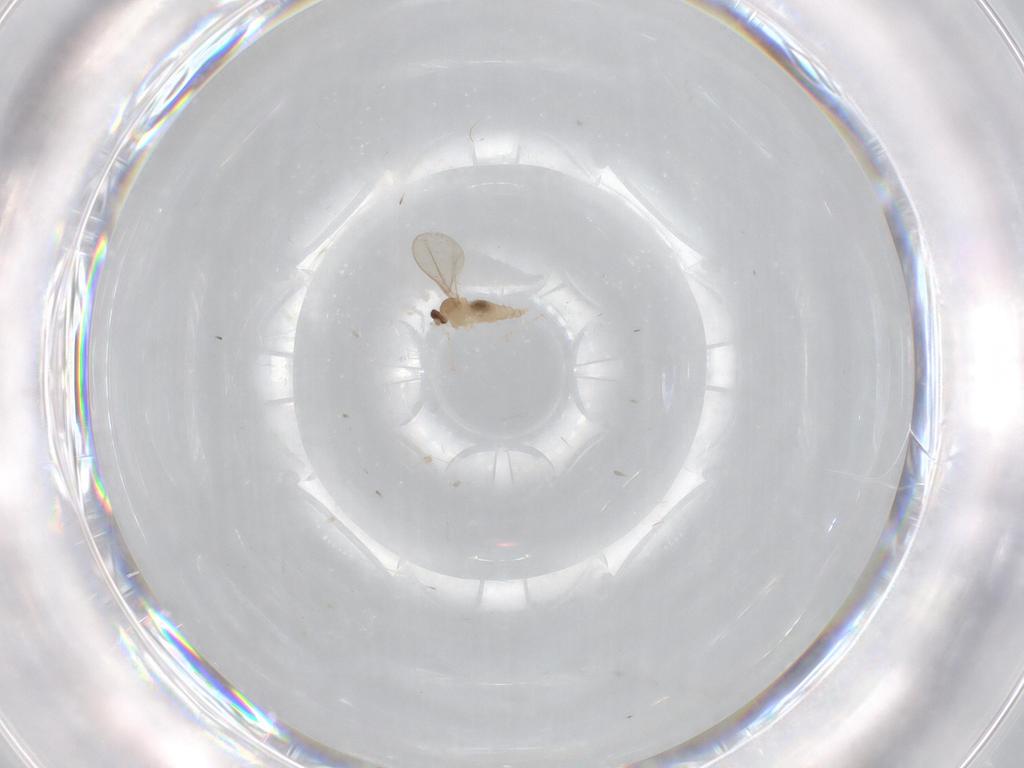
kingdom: Animalia
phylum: Arthropoda
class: Insecta
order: Diptera
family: Cecidomyiidae
